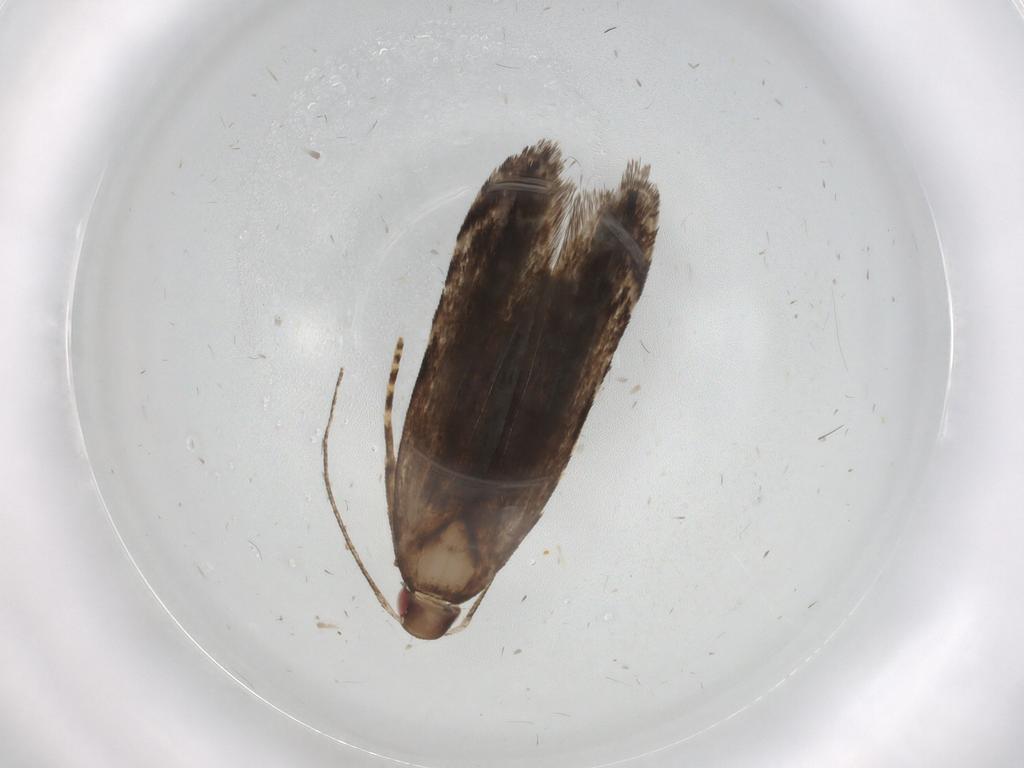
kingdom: Animalia
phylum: Arthropoda
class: Insecta
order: Lepidoptera
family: Gelechiidae
